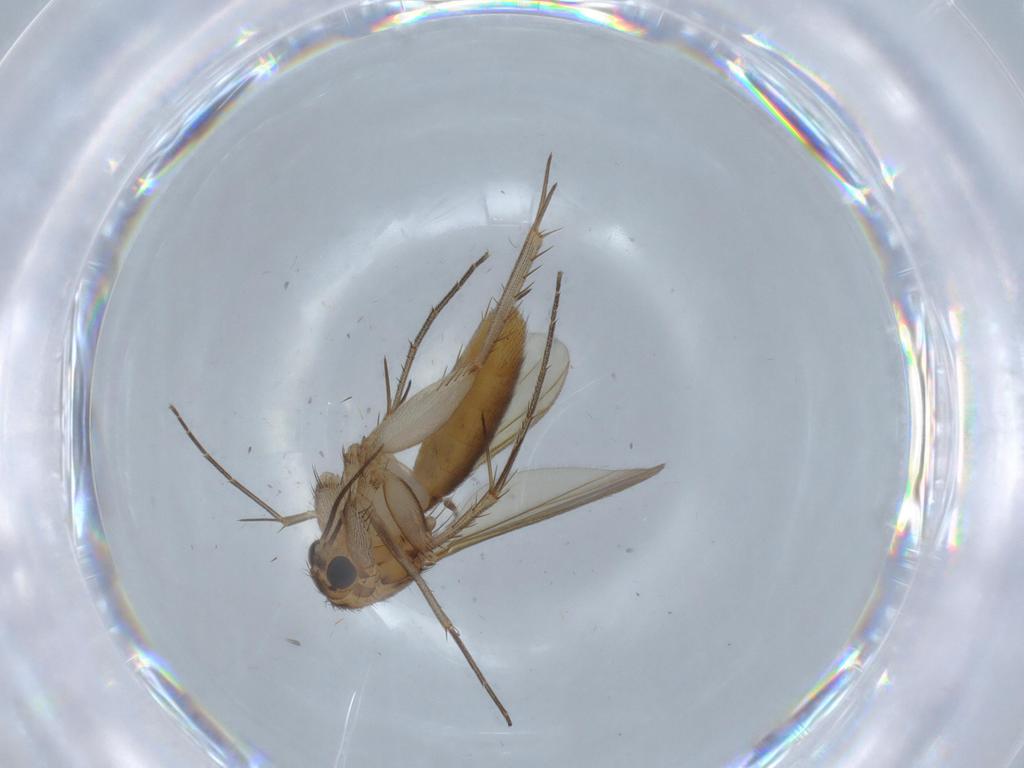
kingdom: Animalia
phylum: Arthropoda
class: Insecta
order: Diptera
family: Mycetophilidae
